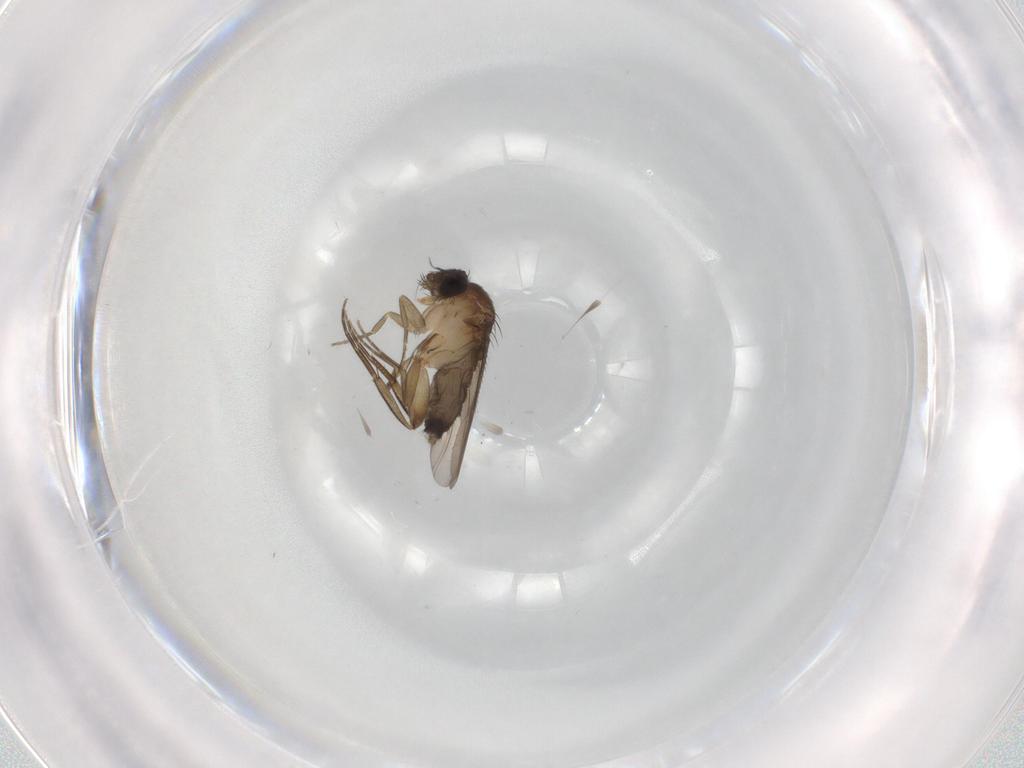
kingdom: Animalia
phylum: Arthropoda
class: Insecta
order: Diptera
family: Phoridae
